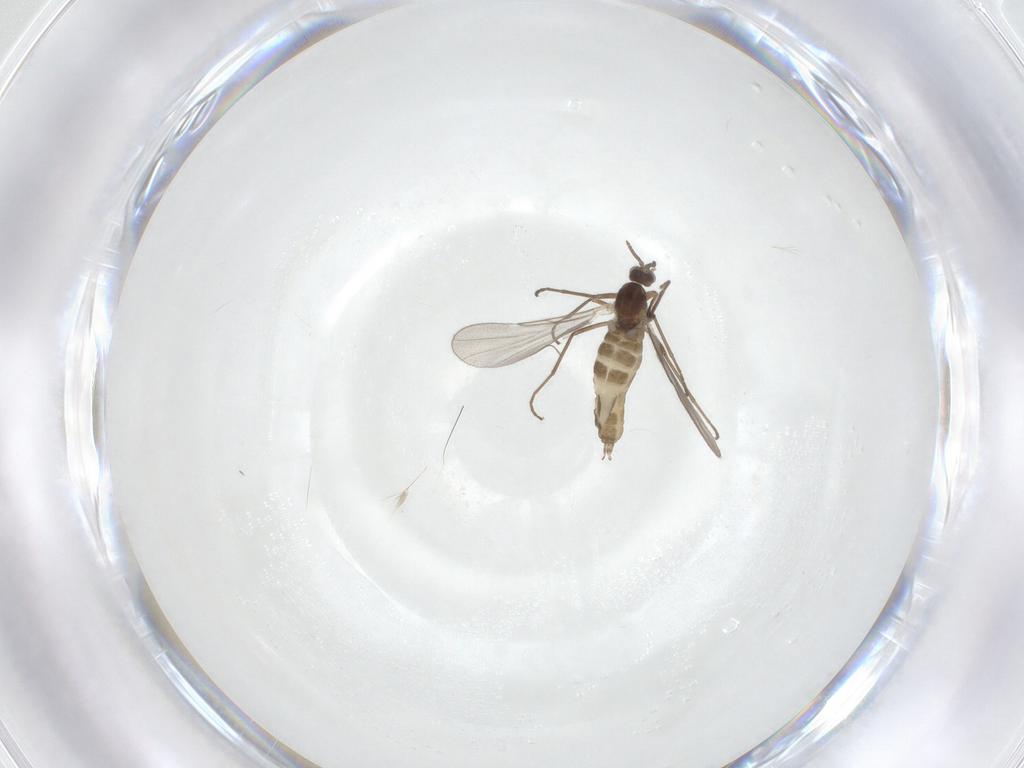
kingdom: Animalia
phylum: Arthropoda
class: Insecta
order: Diptera
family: Cecidomyiidae
